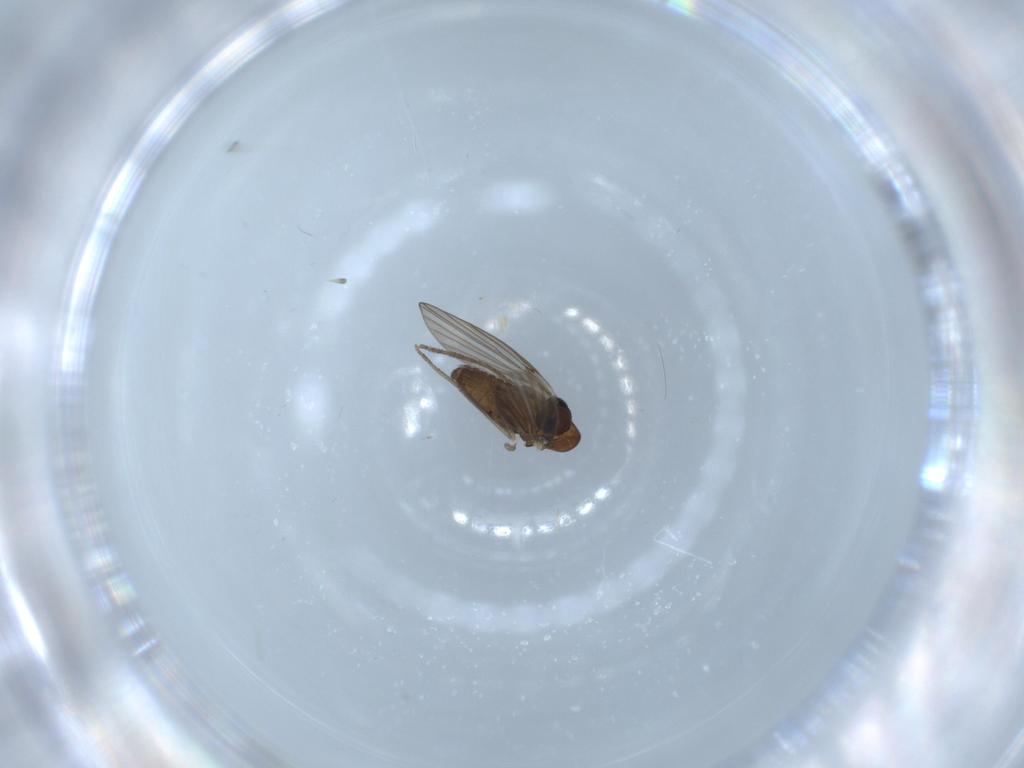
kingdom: Animalia
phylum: Arthropoda
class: Insecta
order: Diptera
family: Psychodidae
